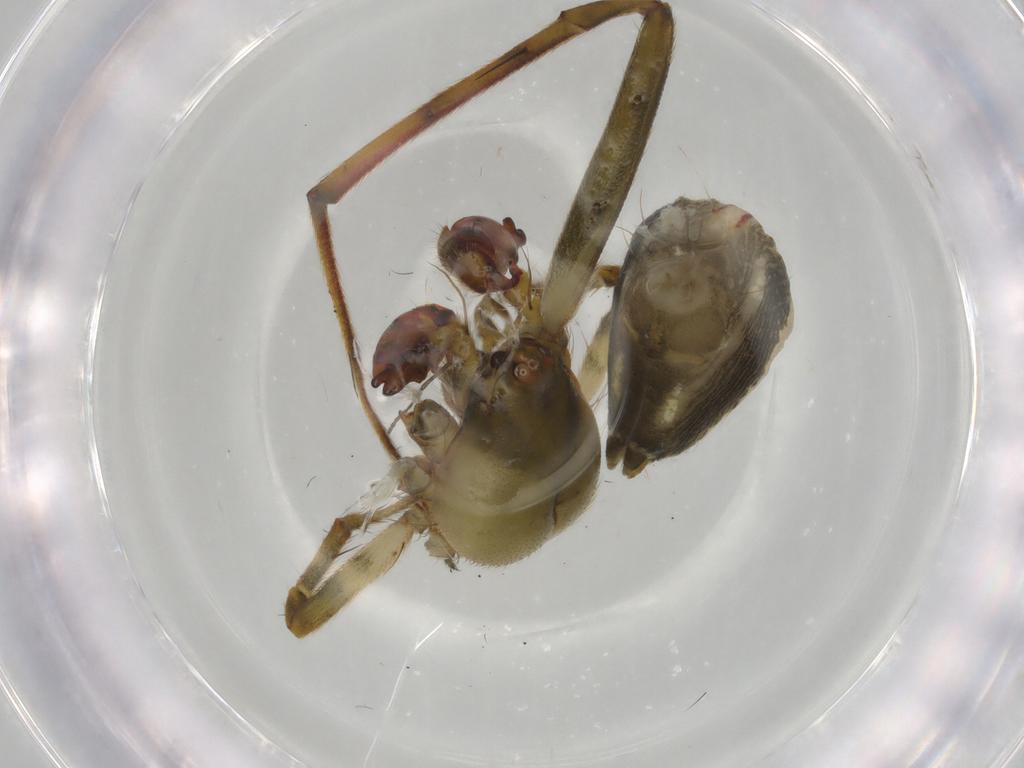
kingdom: Animalia
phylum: Arthropoda
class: Arachnida
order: Araneae
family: Araneidae
